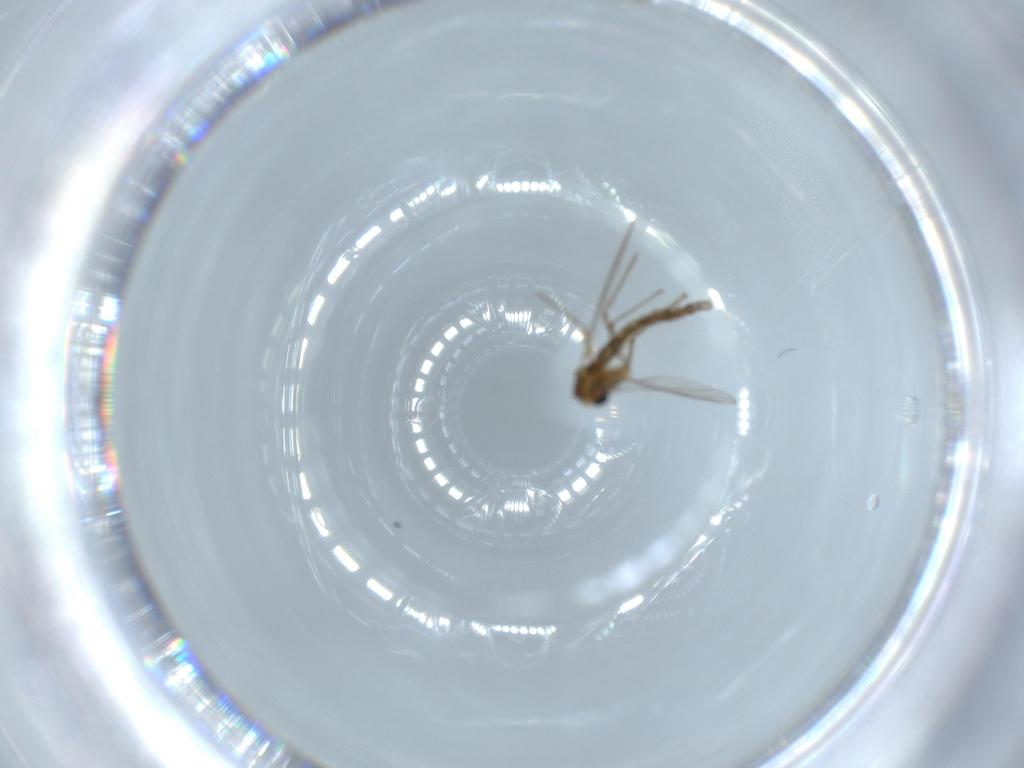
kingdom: Animalia
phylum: Arthropoda
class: Insecta
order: Diptera
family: Chironomidae
